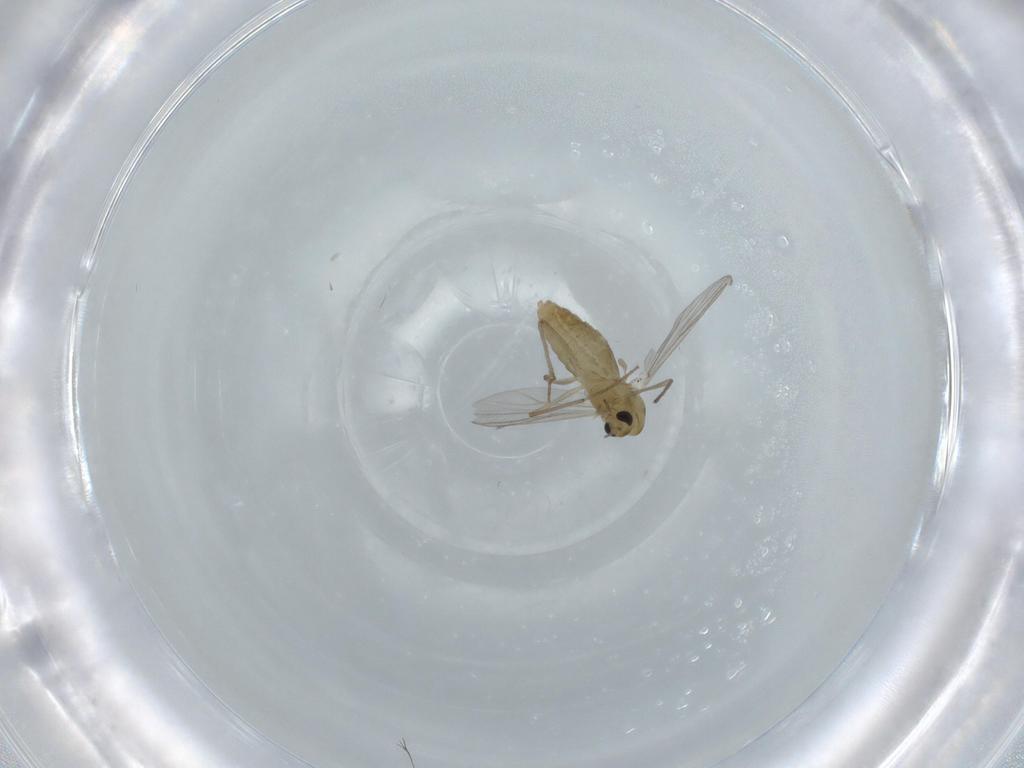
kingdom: Animalia
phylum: Arthropoda
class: Insecta
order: Diptera
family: Chironomidae
